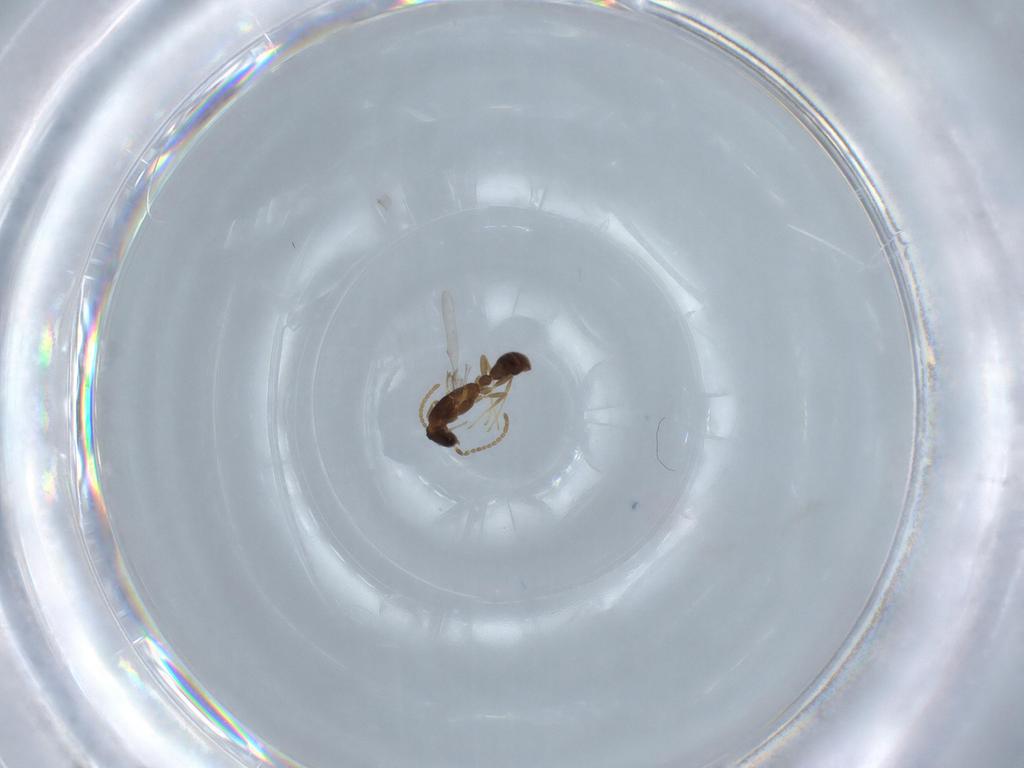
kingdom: Animalia
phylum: Arthropoda
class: Insecta
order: Hymenoptera
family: Formicidae
